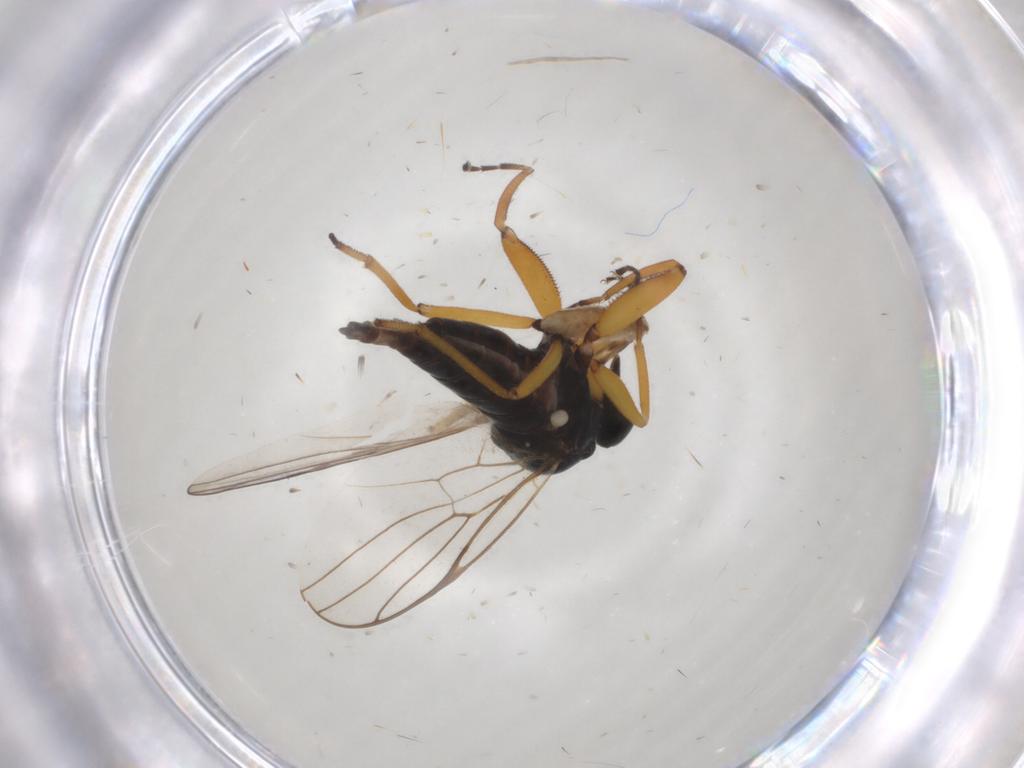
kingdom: Animalia
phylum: Arthropoda
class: Insecta
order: Diptera
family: Hybotidae
